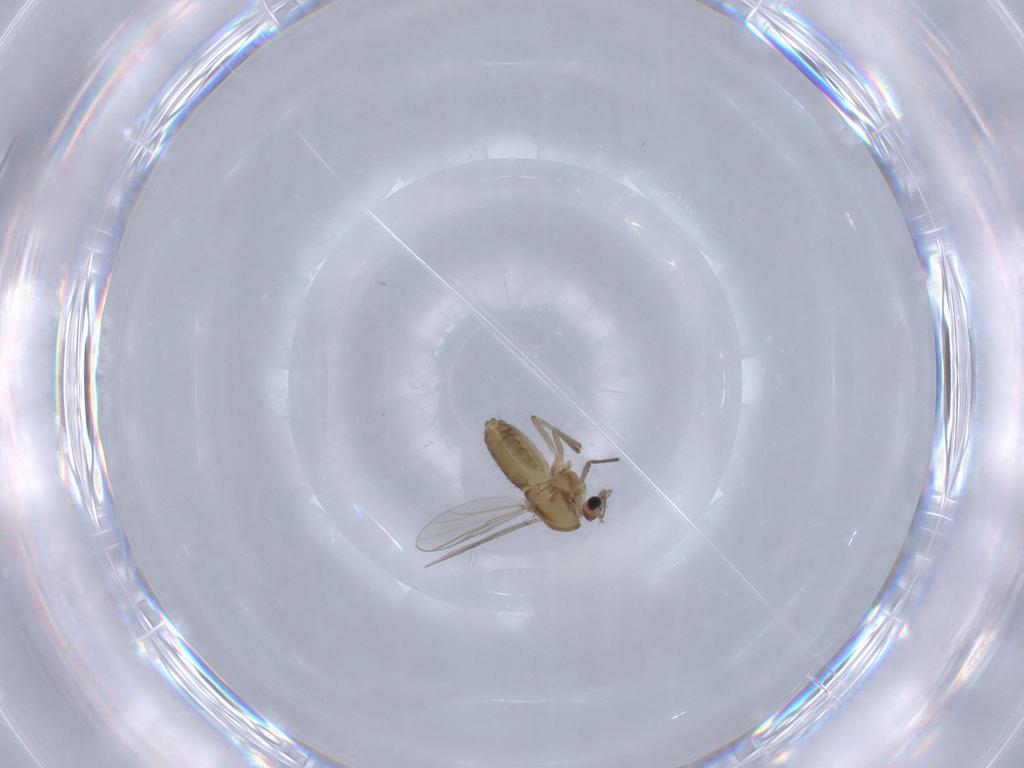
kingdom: Animalia
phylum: Arthropoda
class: Insecta
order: Diptera
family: Chironomidae
